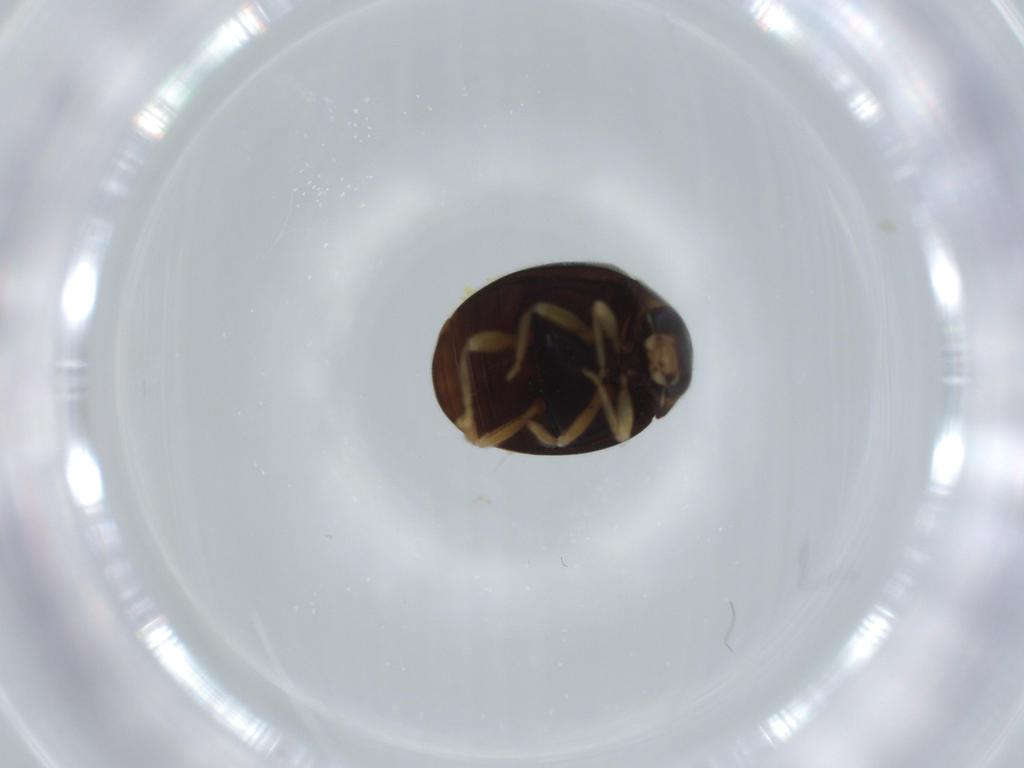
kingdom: Animalia
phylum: Arthropoda
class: Insecta
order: Coleoptera
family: Coccinellidae
